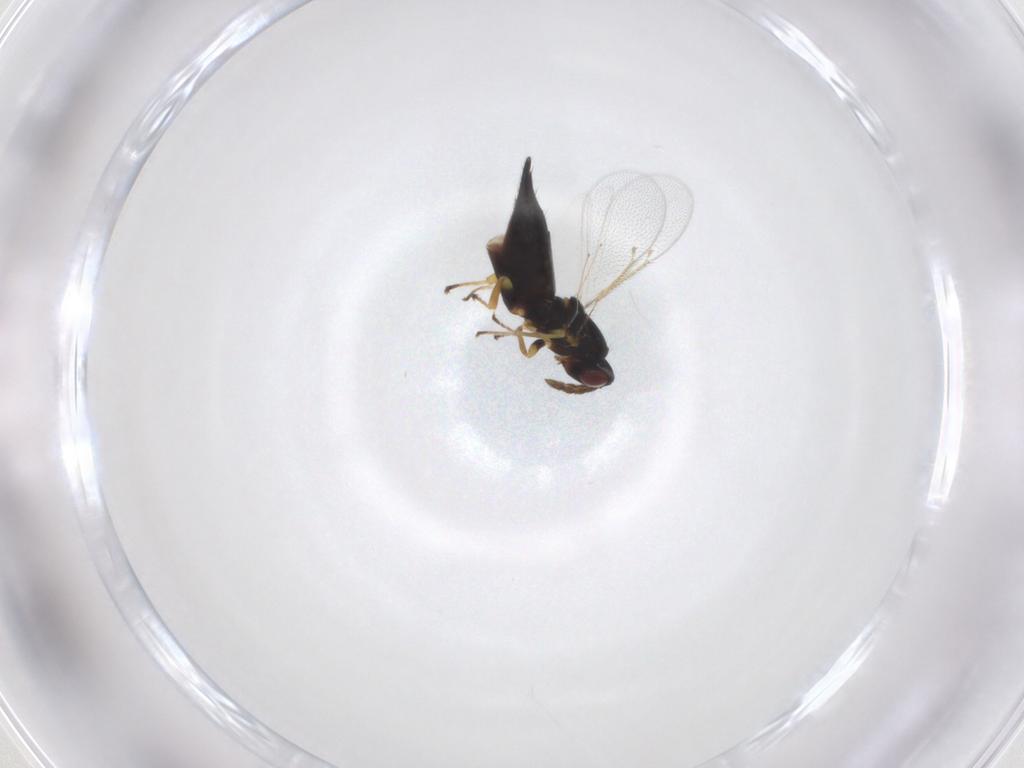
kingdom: Animalia
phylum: Arthropoda
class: Insecta
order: Hymenoptera
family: Eulophidae
